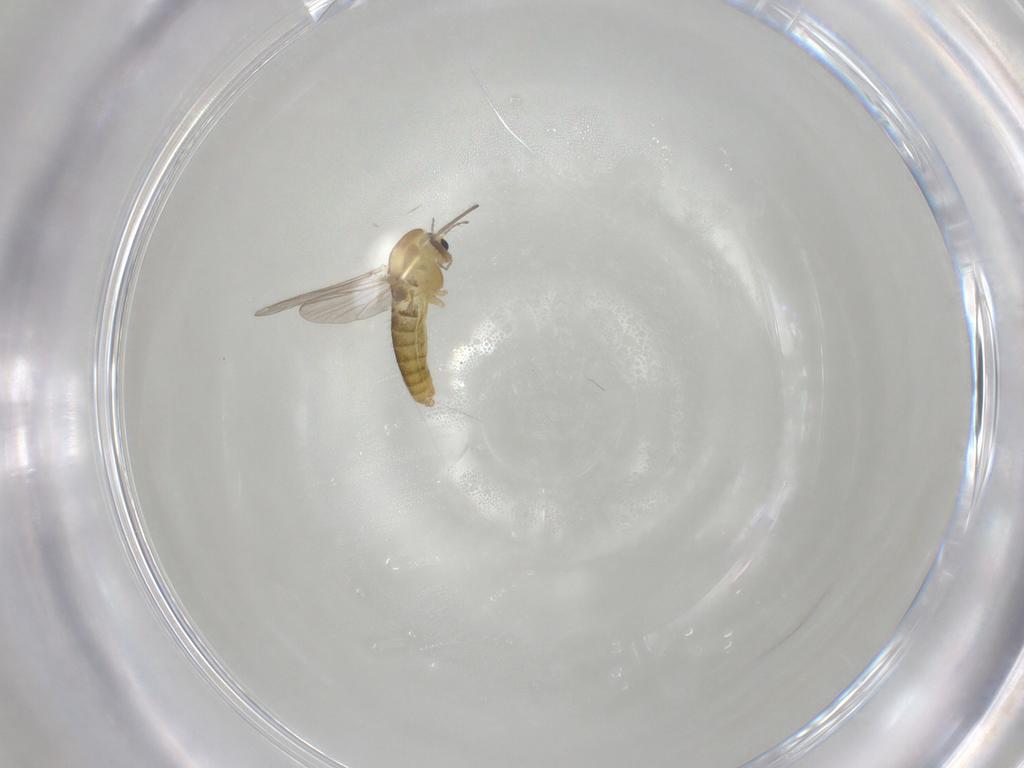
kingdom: Animalia
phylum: Arthropoda
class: Insecta
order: Diptera
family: Chironomidae
